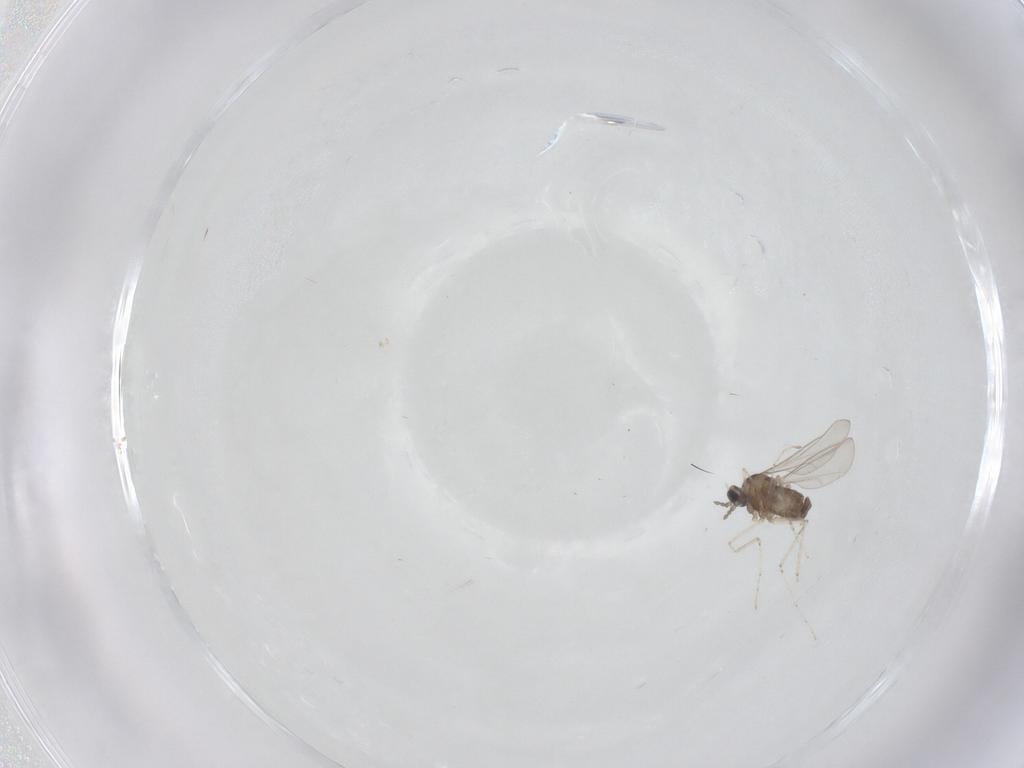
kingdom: Animalia
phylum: Arthropoda
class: Insecta
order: Diptera
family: Cecidomyiidae
